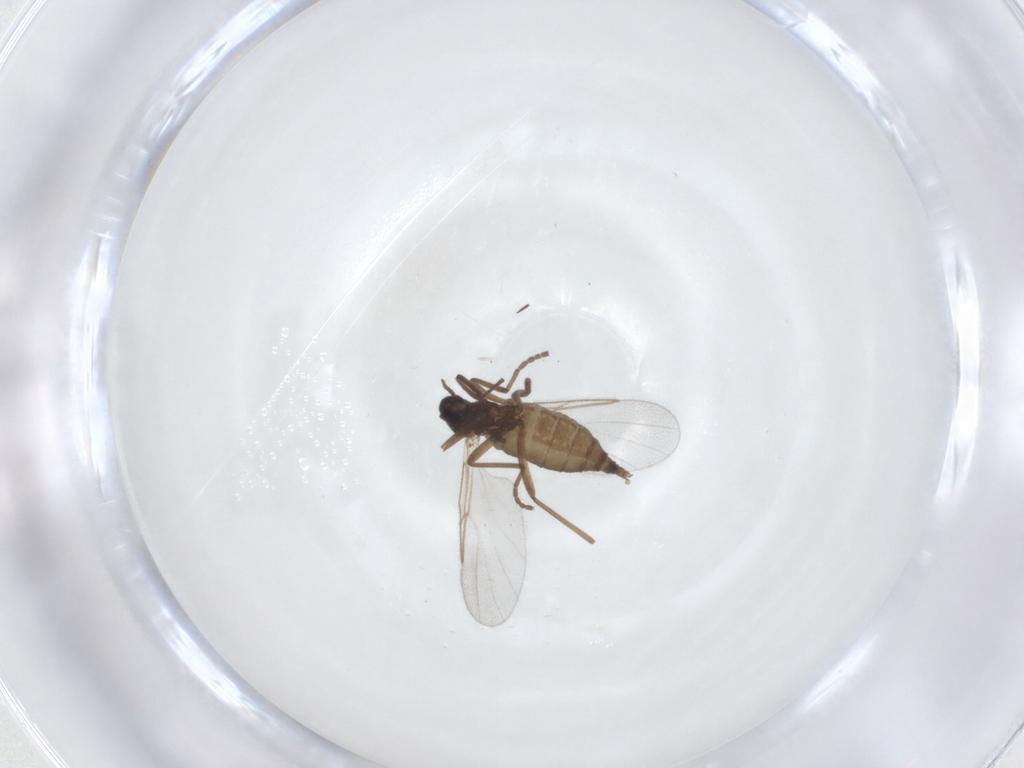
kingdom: Animalia
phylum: Arthropoda
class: Insecta
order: Diptera
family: Cecidomyiidae
